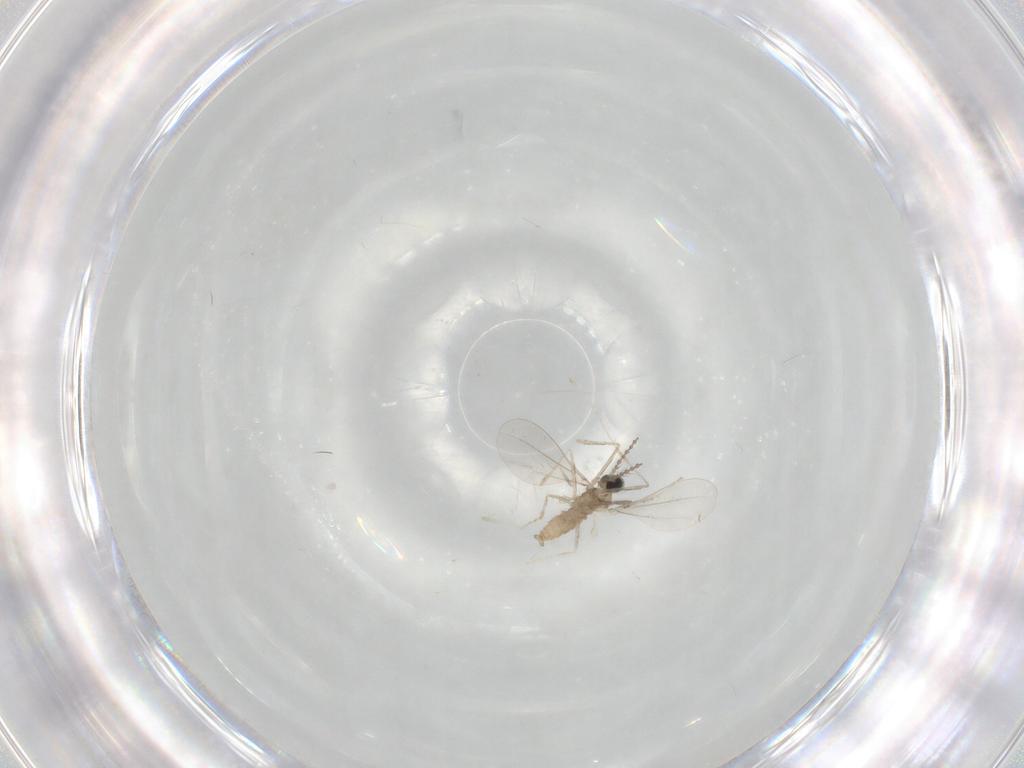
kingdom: Animalia
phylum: Arthropoda
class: Insecta
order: Diptera
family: Cecidomyiidae
